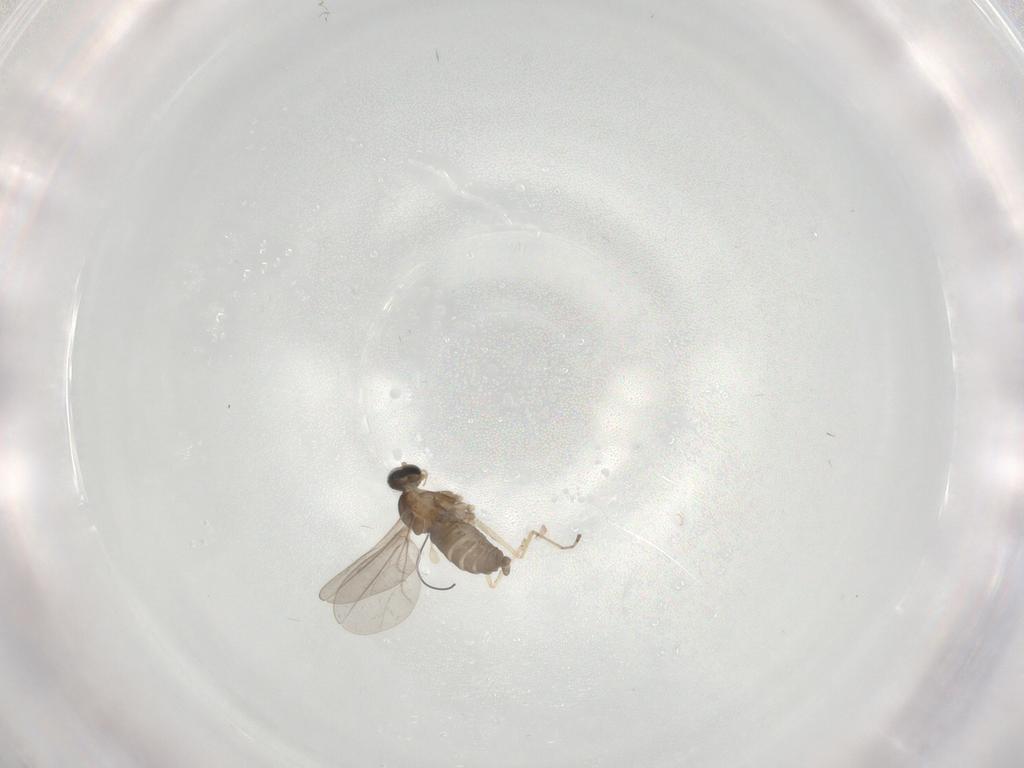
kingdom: Animalia
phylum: Arthropoda
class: Insecta
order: Diptera
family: Cecidomyiidae
